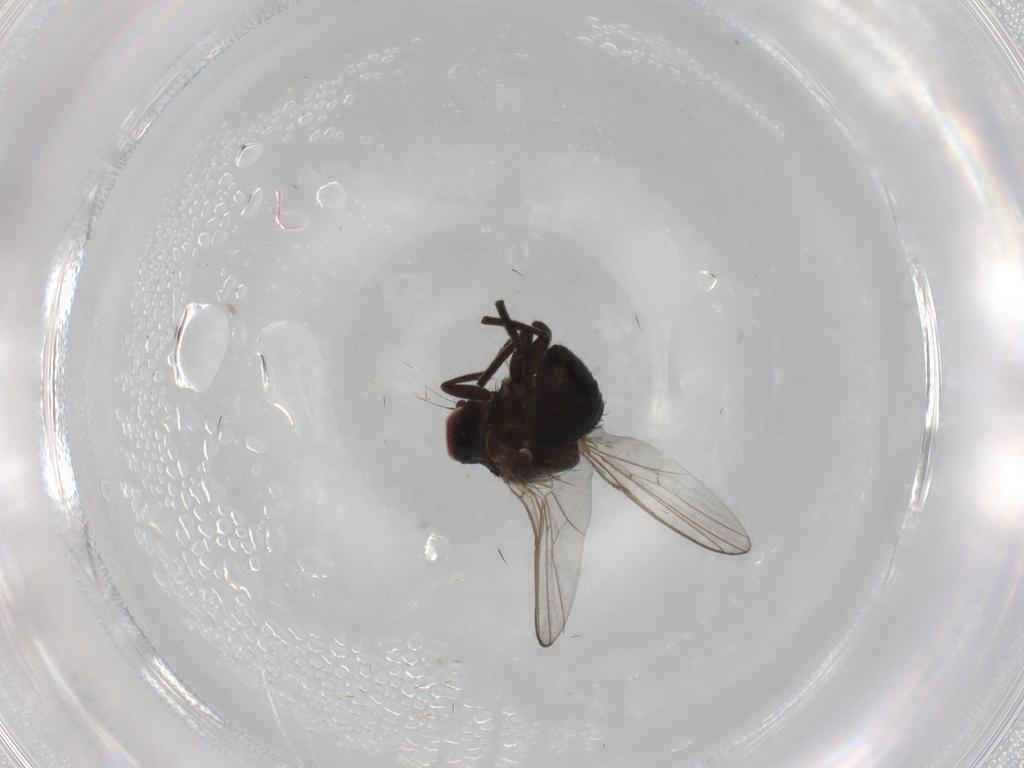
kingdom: Animalia
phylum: Arthropoda
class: Insecta
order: Diptera
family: Agromyzidae
